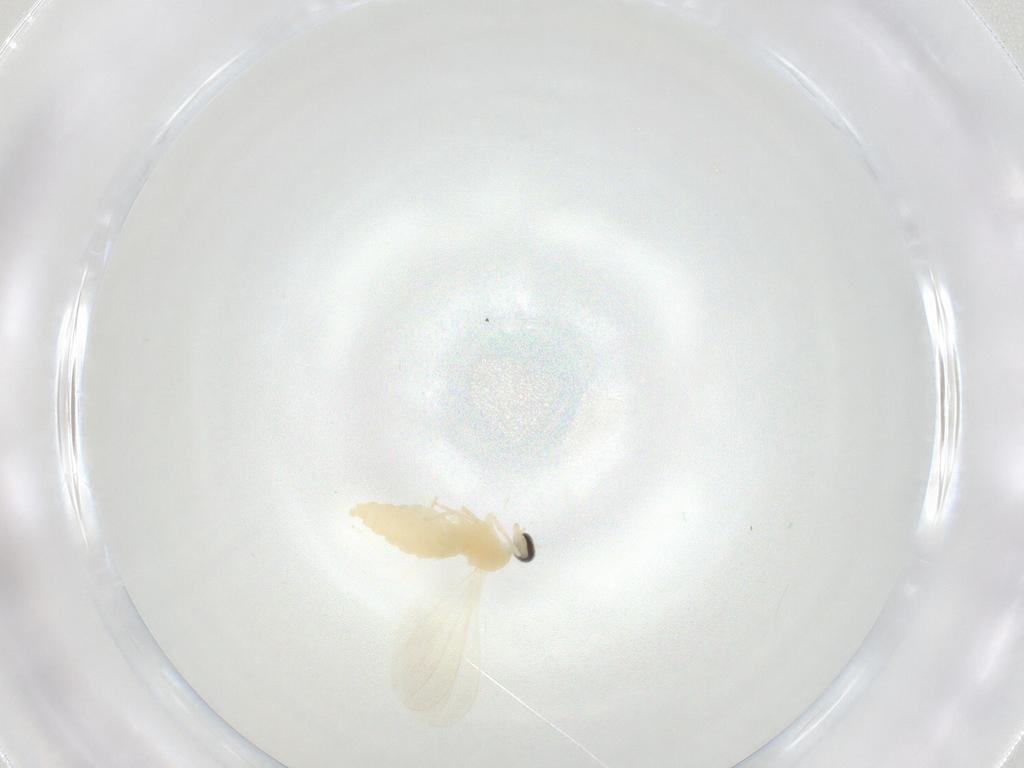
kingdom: Animalia
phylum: Arthropoda
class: Insecta
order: Diptera
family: Cecidomyiidae
